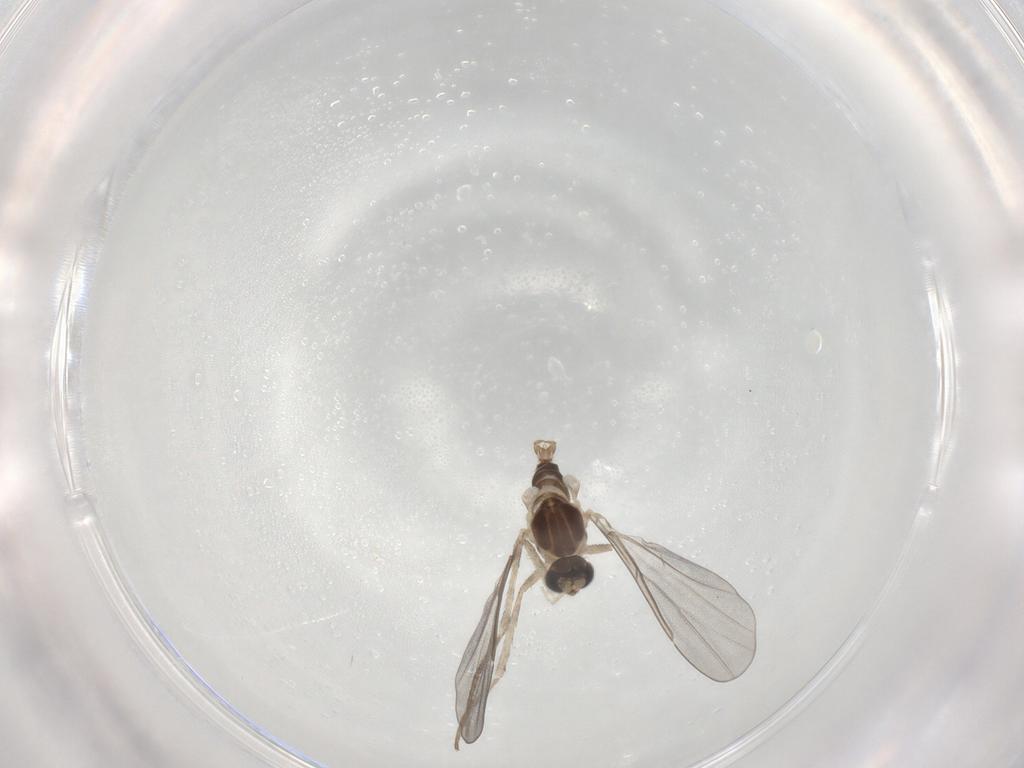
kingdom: Animalia
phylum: Arthropoda
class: Insecta
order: Diptera
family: Cecidomyiidae
